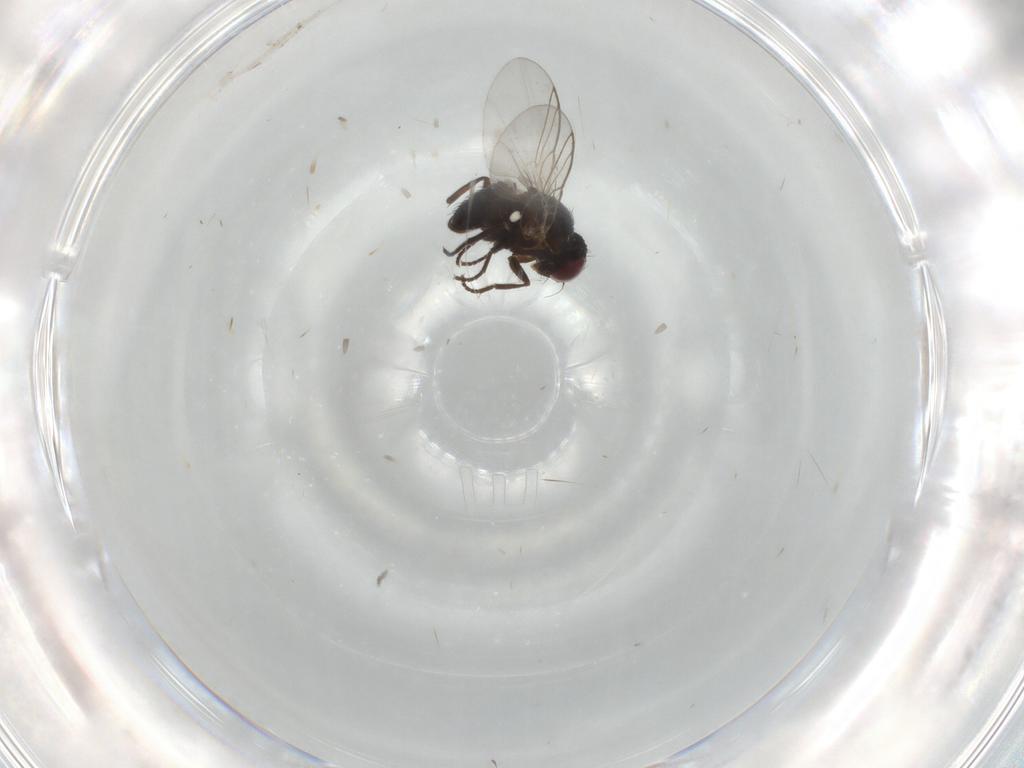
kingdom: Animalia
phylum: Arthropoda
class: Insecta
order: Diptera
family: Agromyzidae
